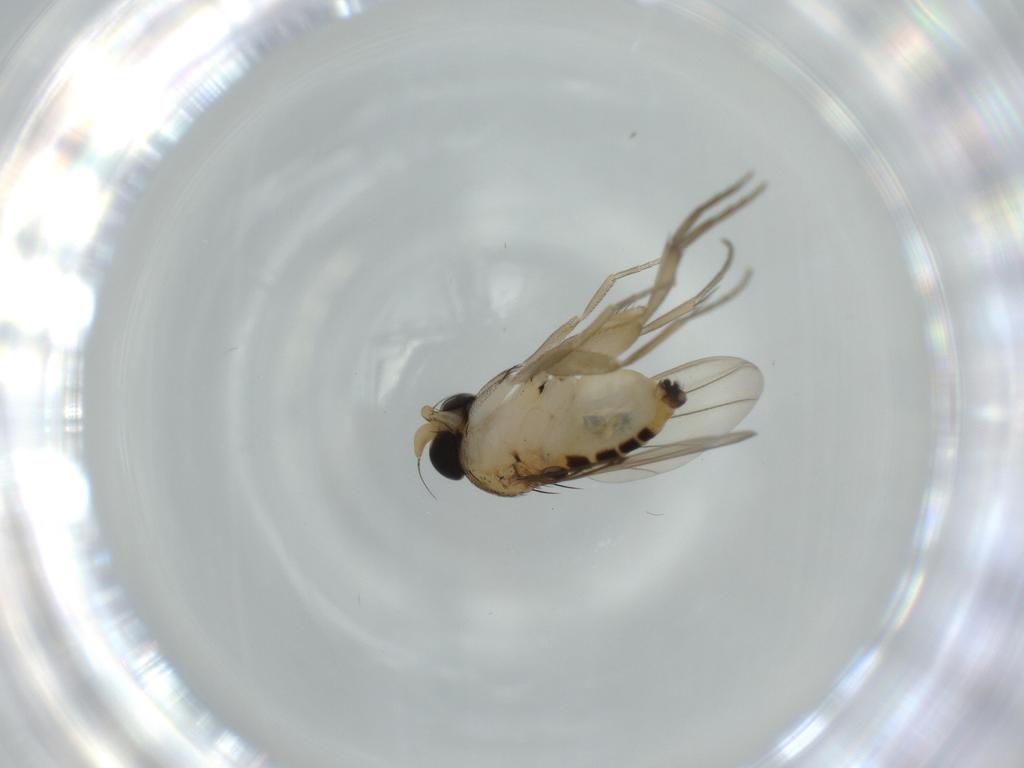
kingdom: Animalia
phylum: Arthropoda
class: Insecta
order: Diptera
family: Phoridae
